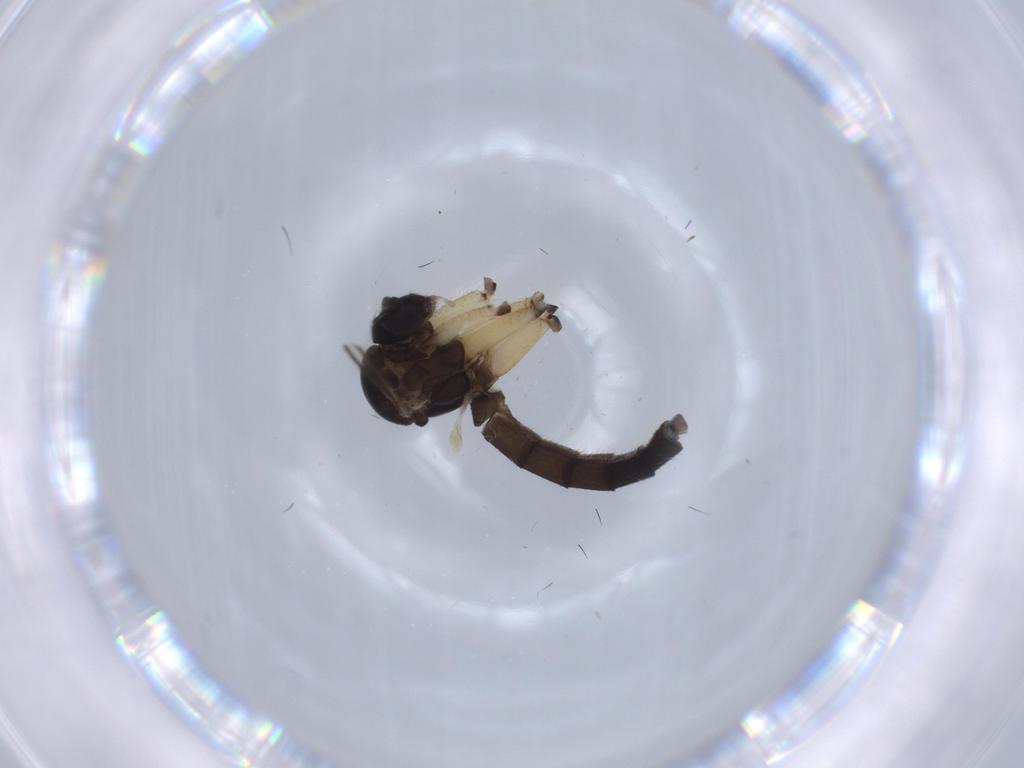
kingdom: Animalia
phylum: Arthropoda
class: Insecta
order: Diptera
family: Scathophagidae
